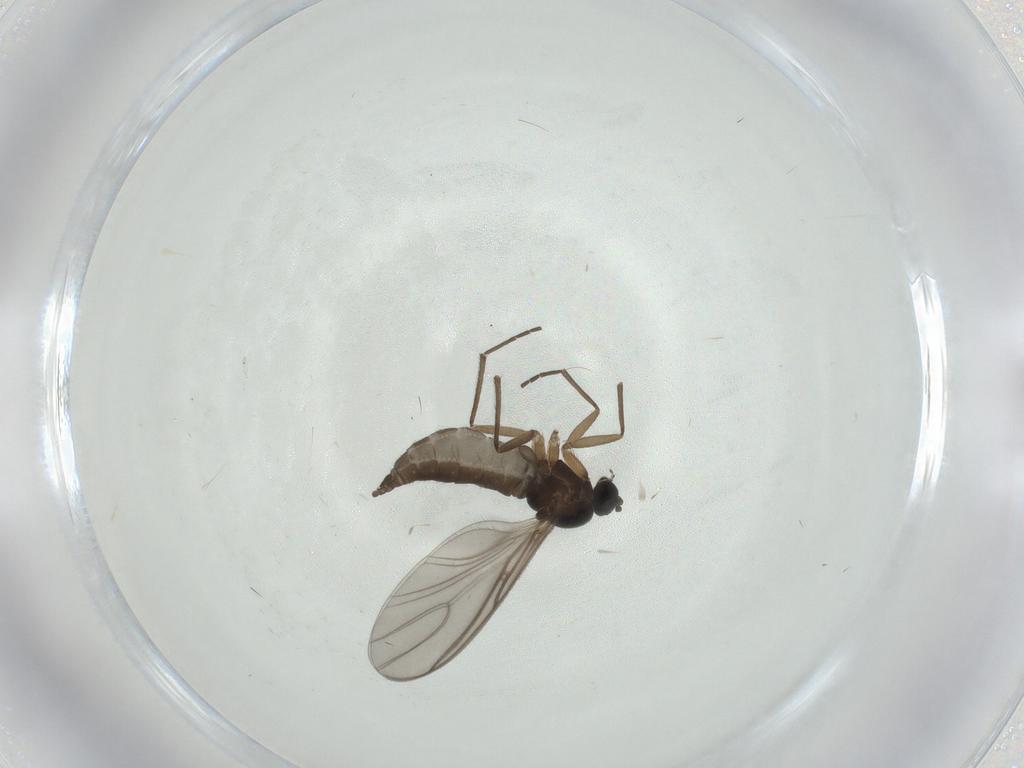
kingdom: Animalia
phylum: Arthropoda
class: Insecta
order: Diptera
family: Sciaridae
